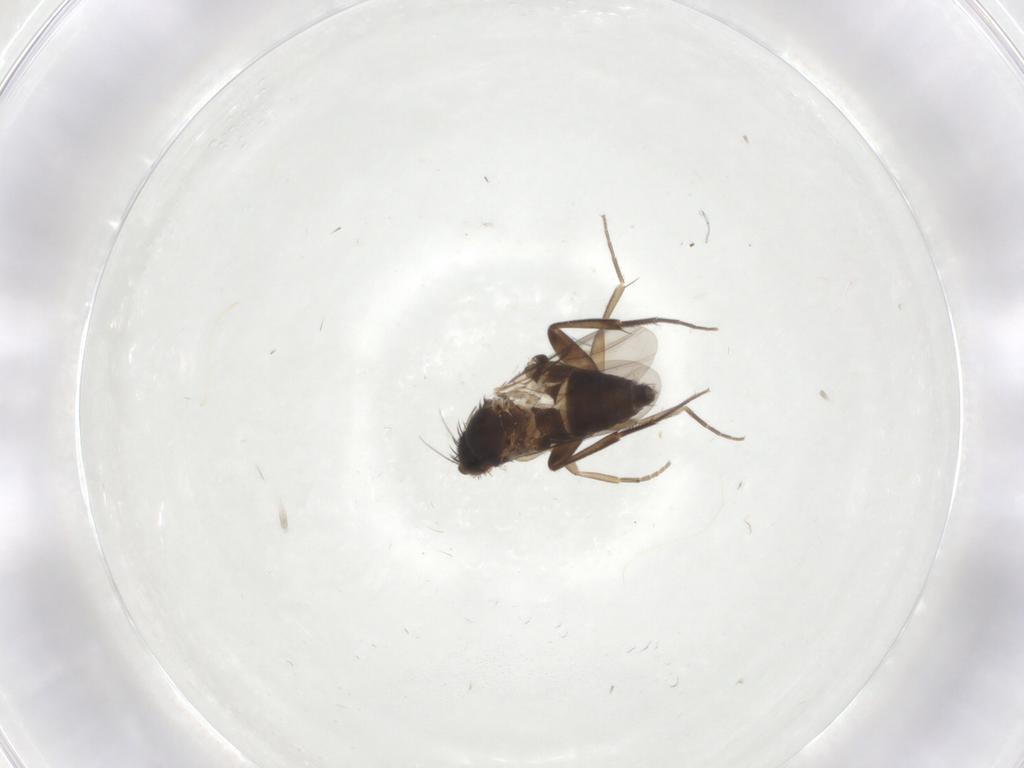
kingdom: Animalia
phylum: Arthropoda
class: Insecta
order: Diptera
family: Phoridae
